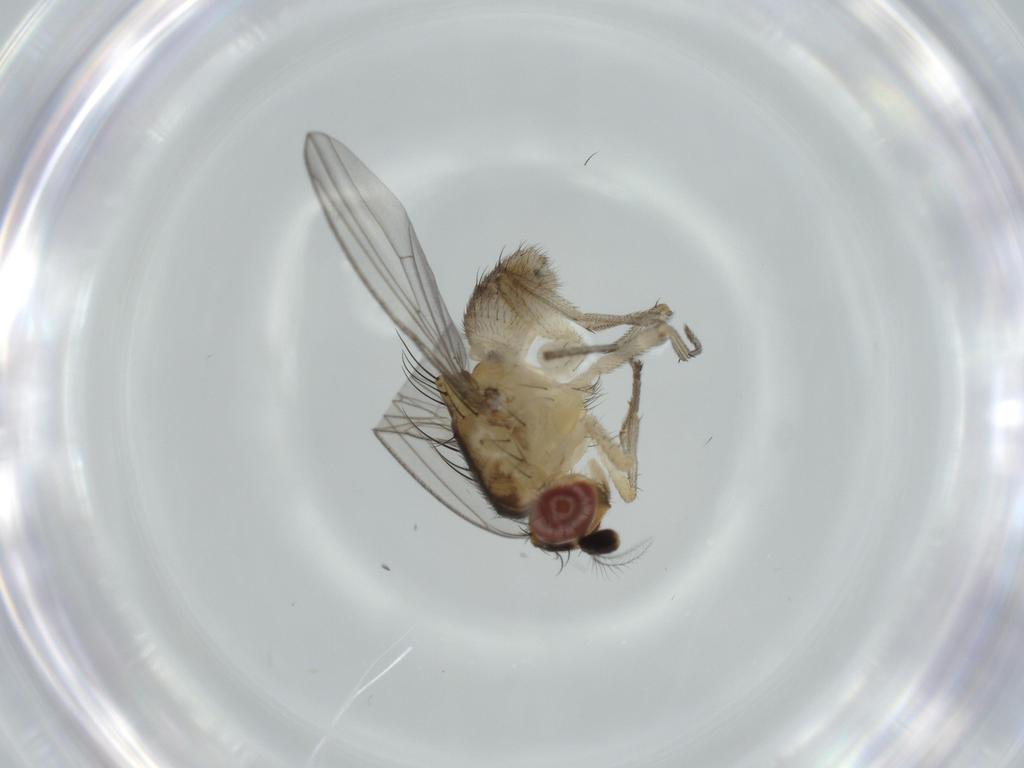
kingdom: Animalia
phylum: Arthropoda
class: Insecta
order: Diptera
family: Lauxaniidae
